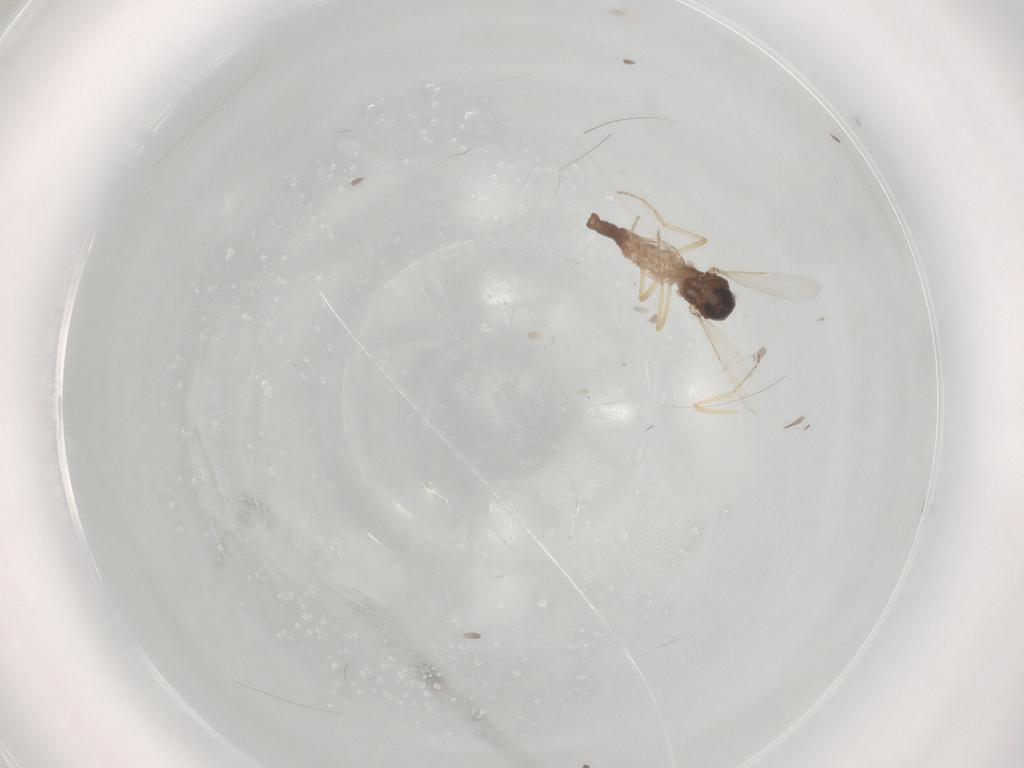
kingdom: Animalia
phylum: Arthropoda
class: Insecta
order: Diptera
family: Ceratopogonidae
